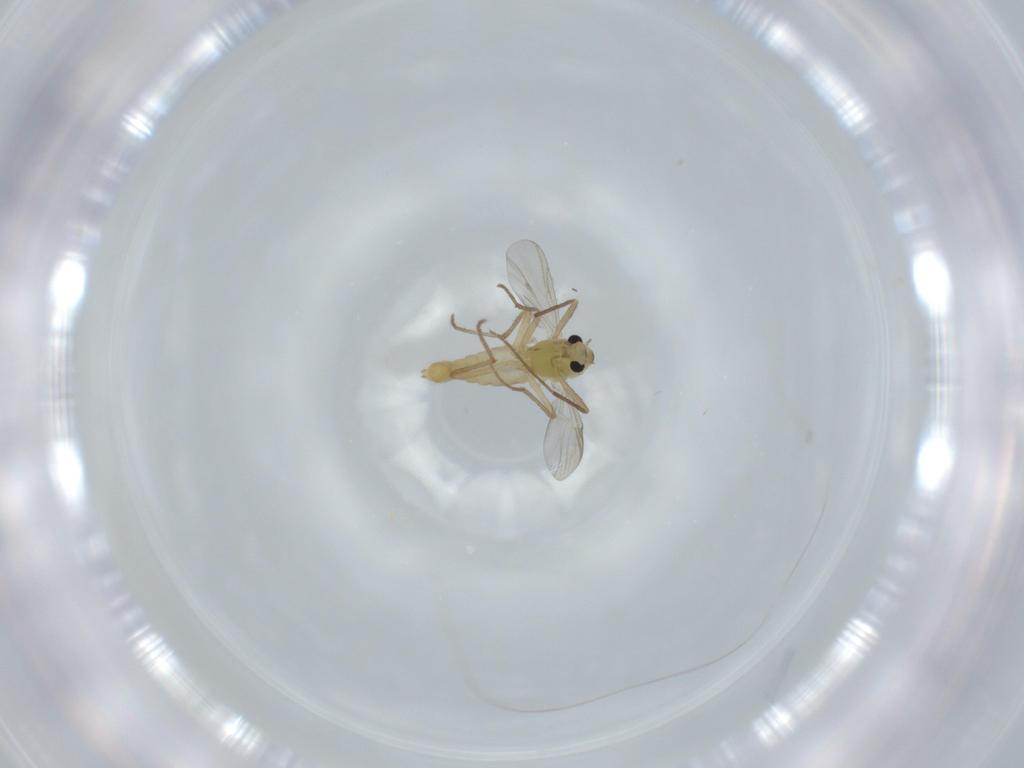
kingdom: Animalia
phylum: Arthropoda
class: Insecta
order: Diptera
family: Chironomidae
